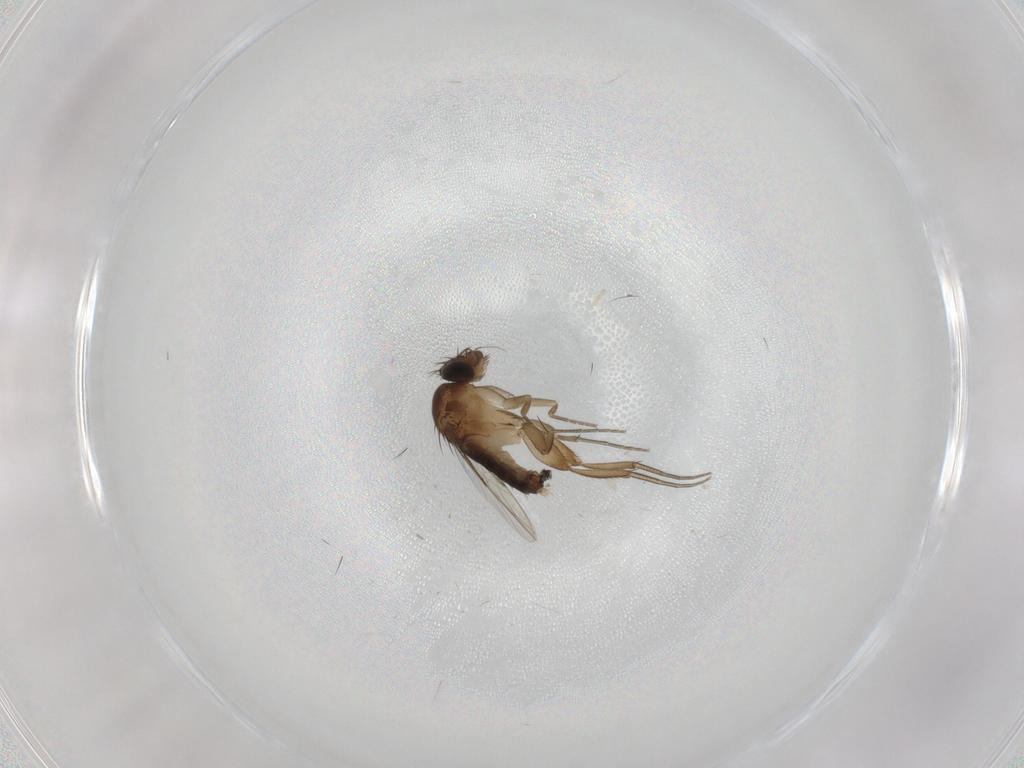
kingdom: Animalia
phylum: Arthropoda
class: Insecta
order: Diptera
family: Phoridae
